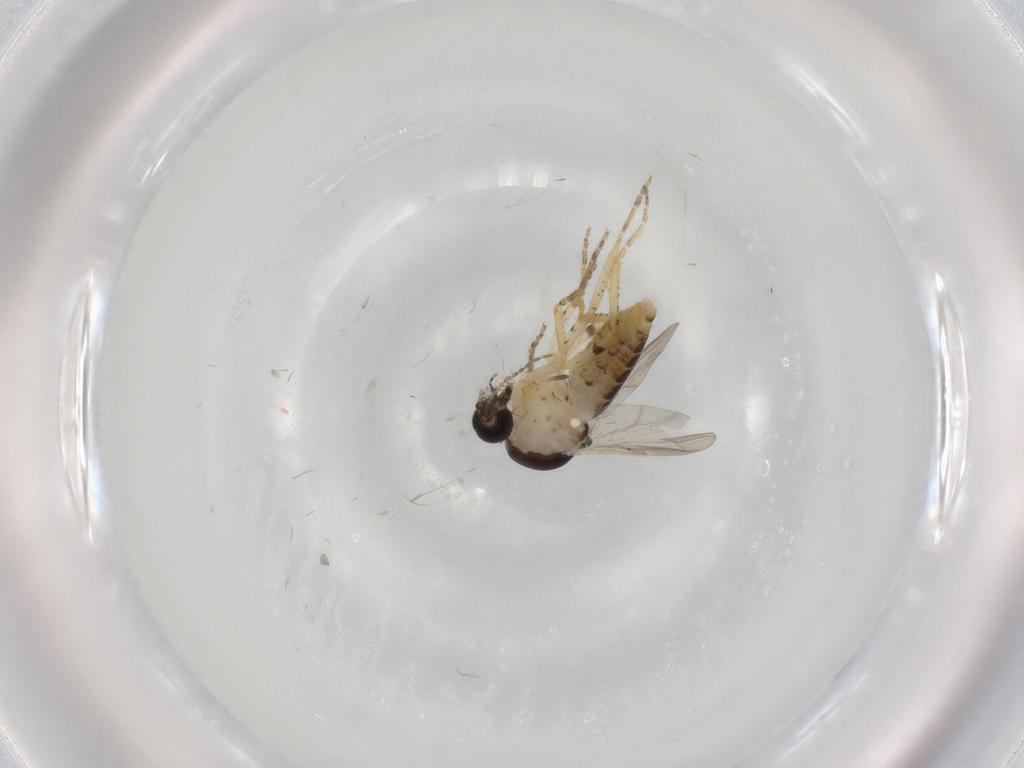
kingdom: Animalia
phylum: Arthropoda
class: Insecta
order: Diptera
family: Ceratopogonidae
